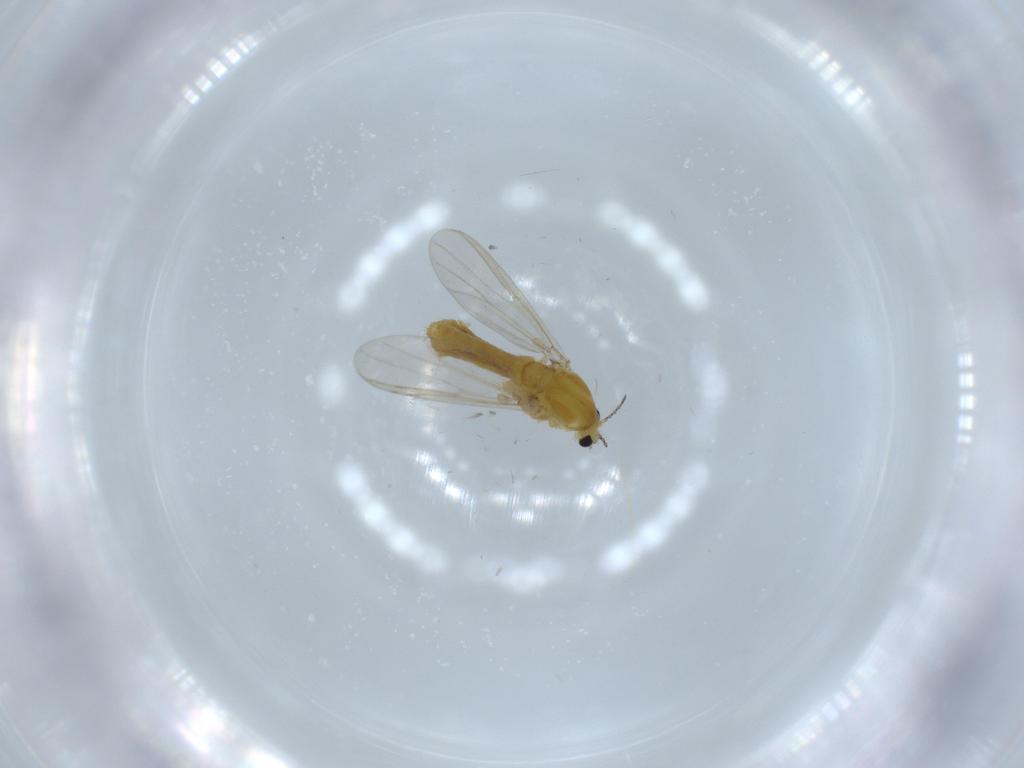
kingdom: Animalia
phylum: Arthropoda
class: Insecta
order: Diptera
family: Chironomidae
